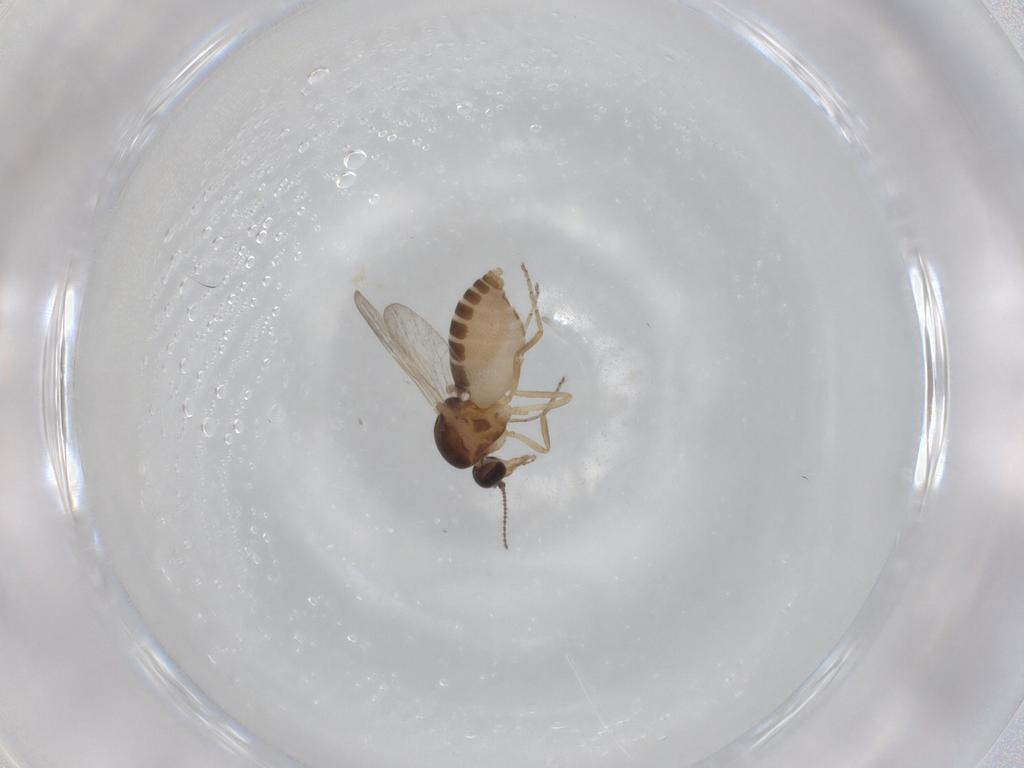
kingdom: Animalia
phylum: Arthropoda
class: Insecta
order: Diptera
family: Ceratopogonidae
